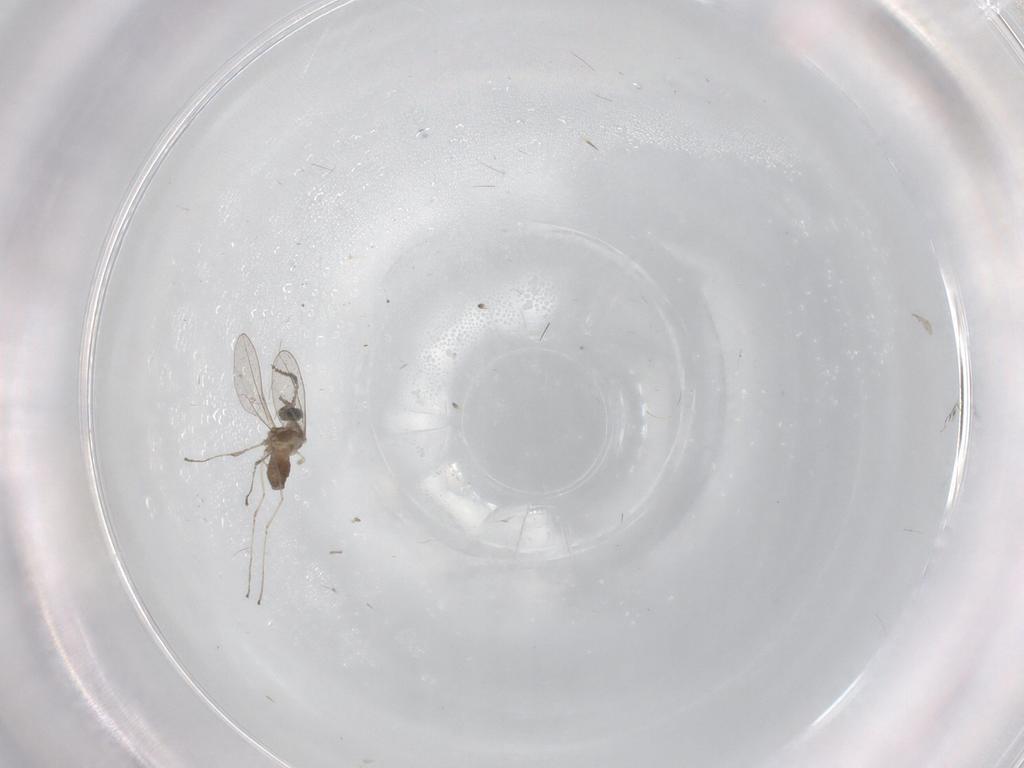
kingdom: Animalia
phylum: Arthropoda
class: Insecta
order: Diptera
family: Cecidomyiidae
